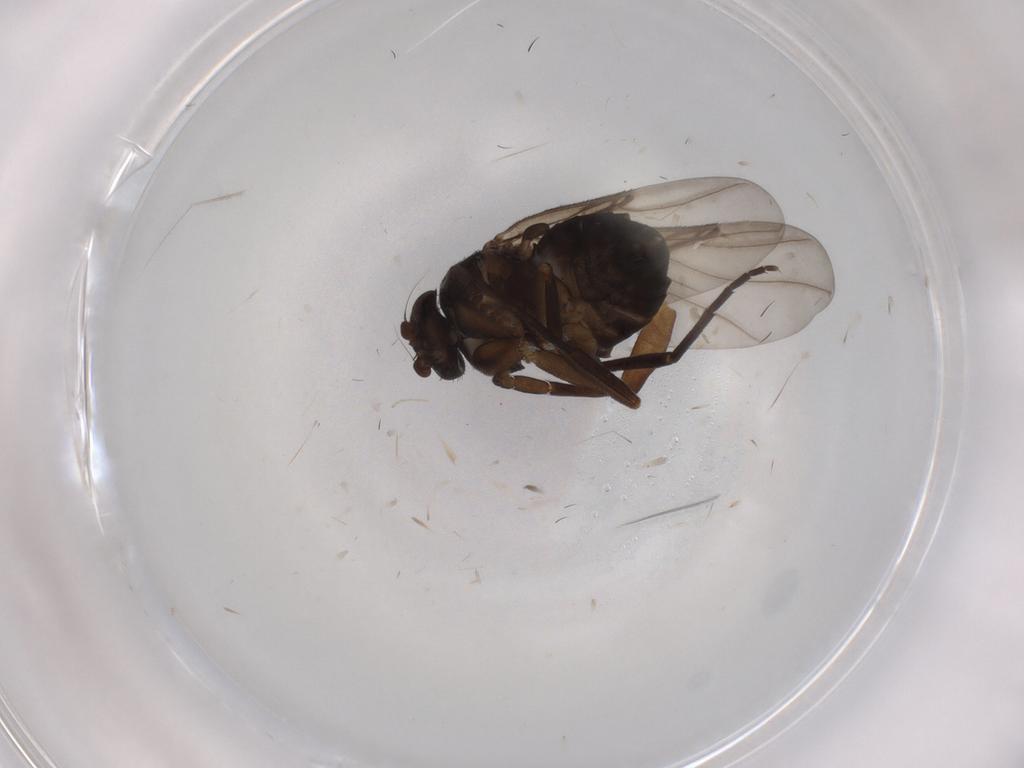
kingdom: Animalia
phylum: Arthropoda
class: Insecta
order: Diptera
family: Phoridae
